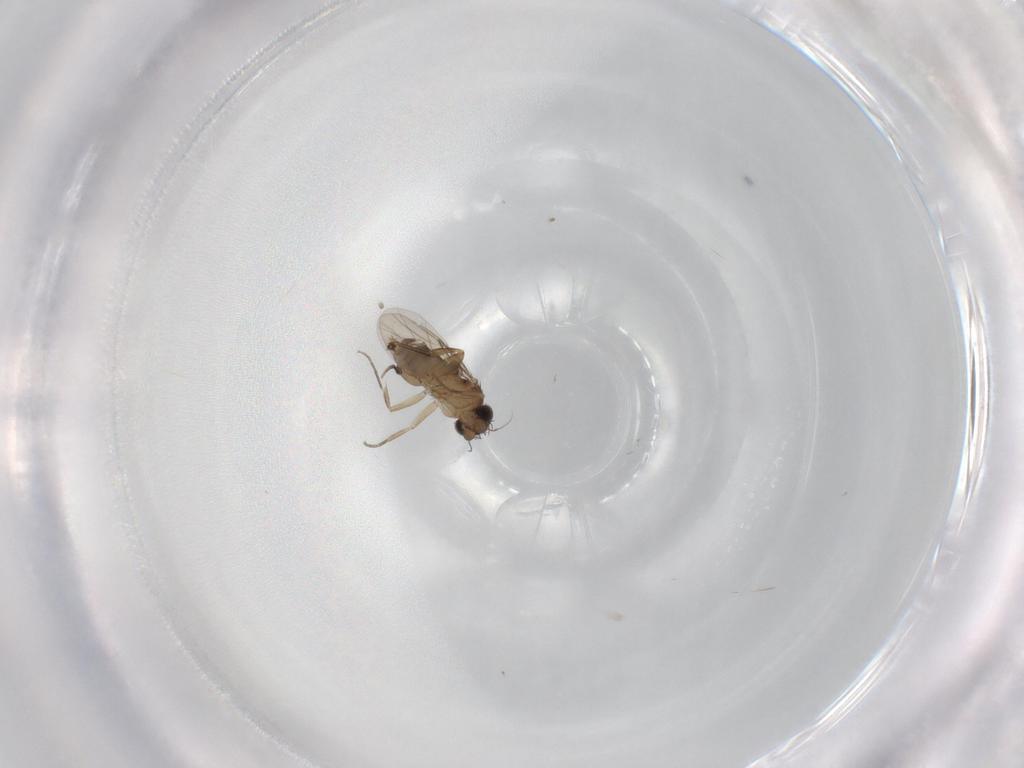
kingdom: Animalia
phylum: Arthropoda
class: Insecta
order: Diptera
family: Phoridae
